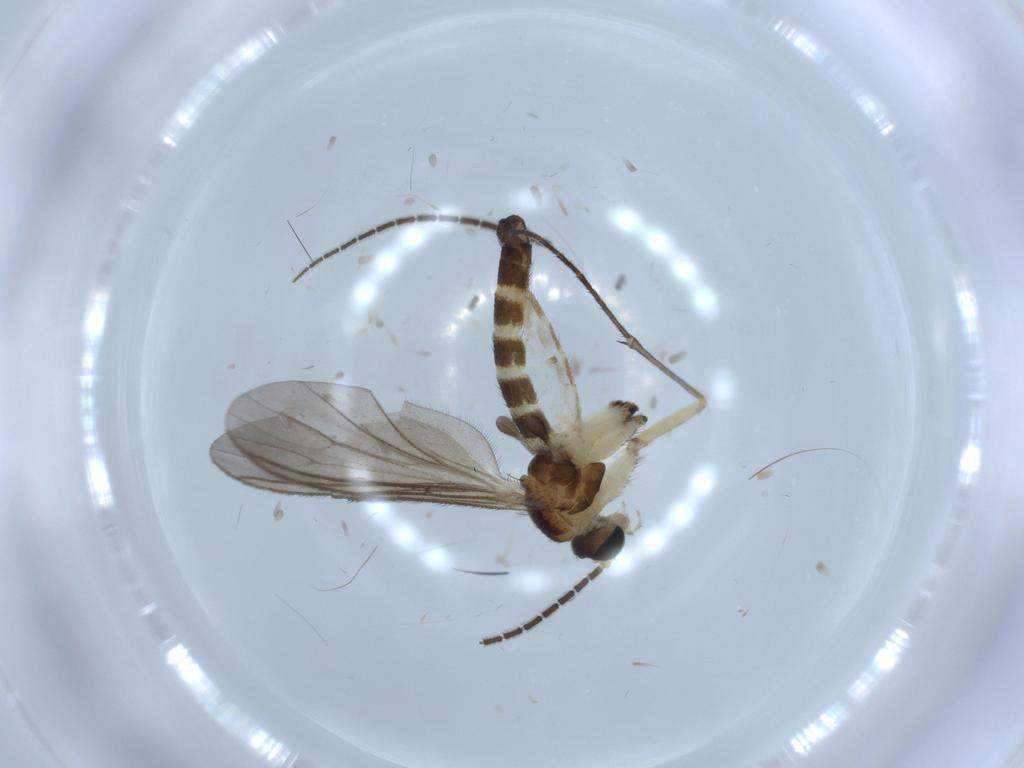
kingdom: Animalia
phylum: Arthropoda
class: Insecta
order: Diptera
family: Sciaridae
